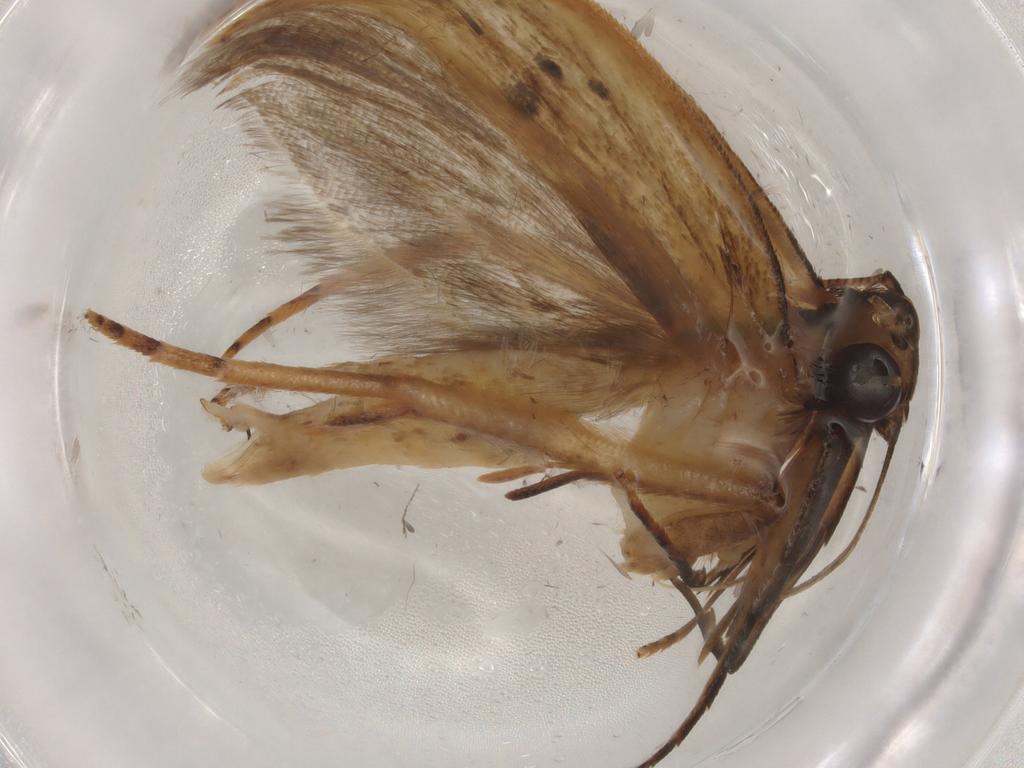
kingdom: Animalia
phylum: Arthropoda
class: Insecta
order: Lepidoptera
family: Gelechiidae
